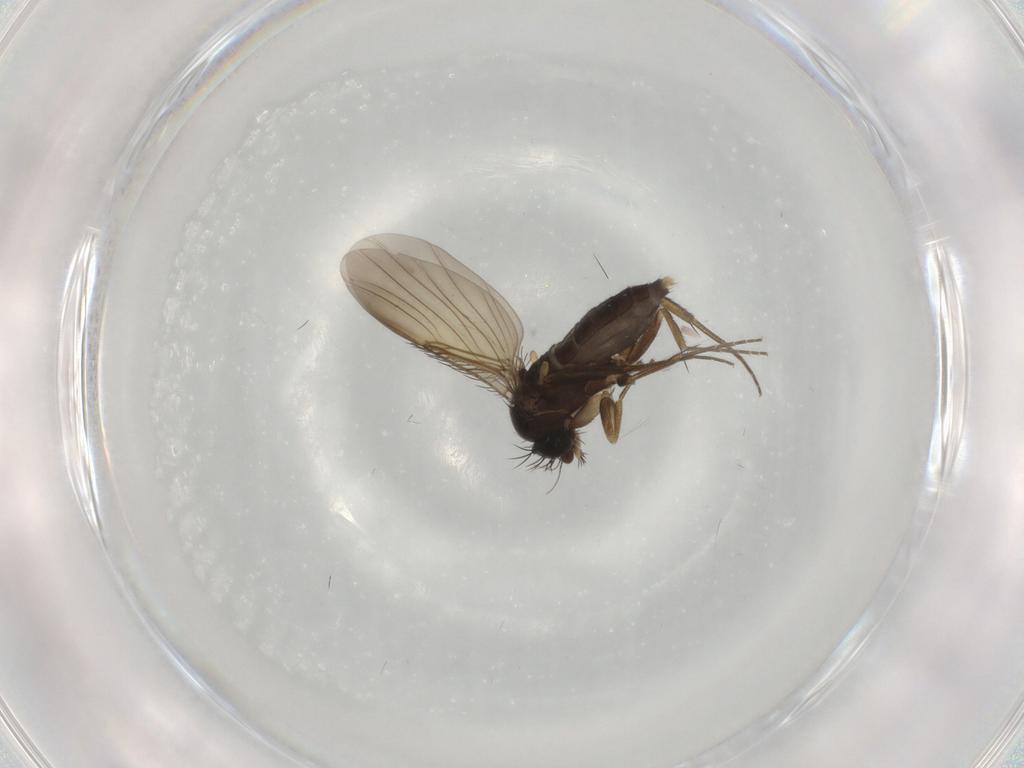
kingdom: Animalia
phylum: Arthropoda
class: Insecta
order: Diptera
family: Phoridae
